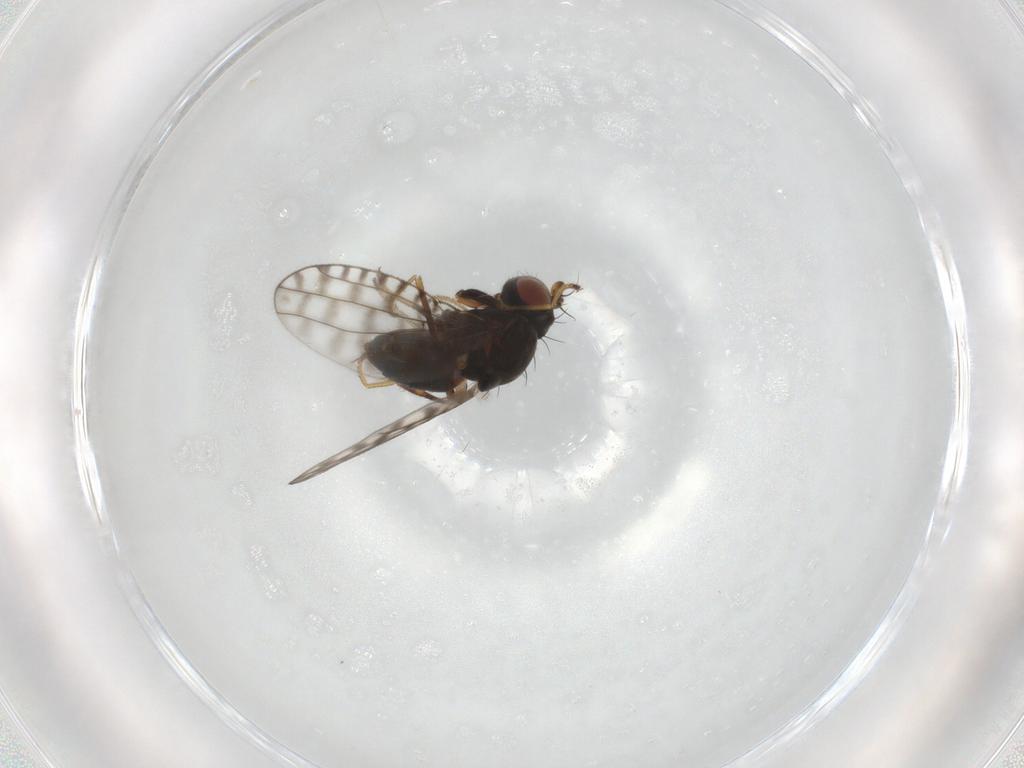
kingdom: Animalia
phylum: Arthropoda
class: Insecta
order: Diptera
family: Ephydridae
